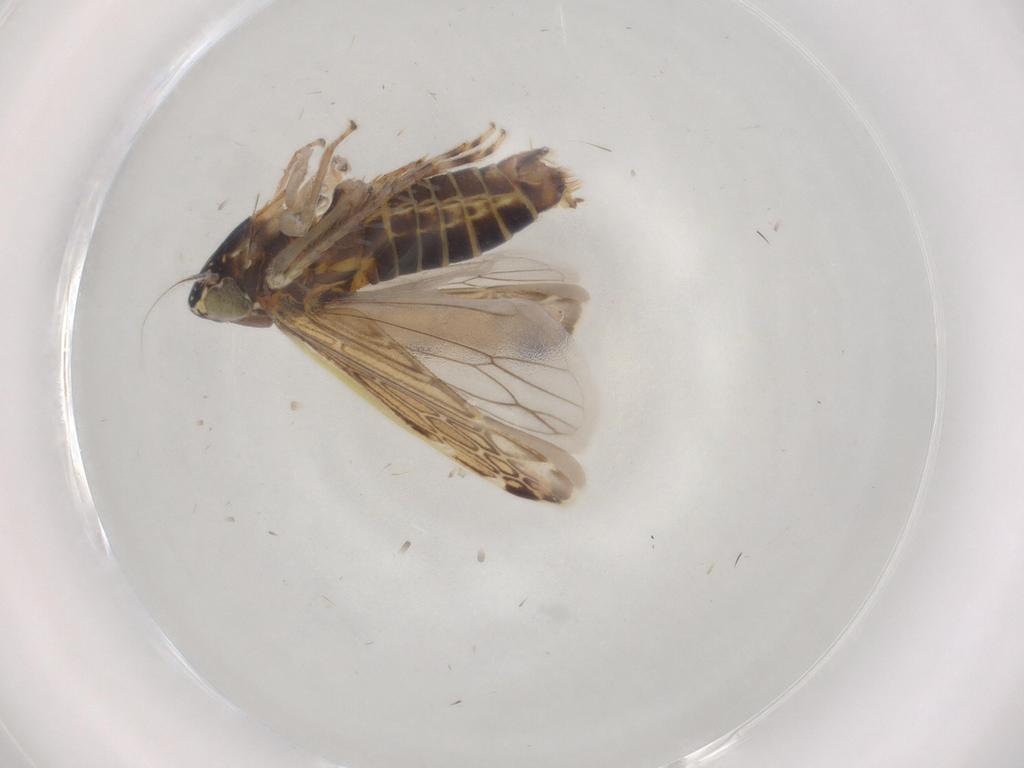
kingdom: Animalia
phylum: Arthropoda
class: Insecta
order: Hemiptera
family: Cicadellidae
